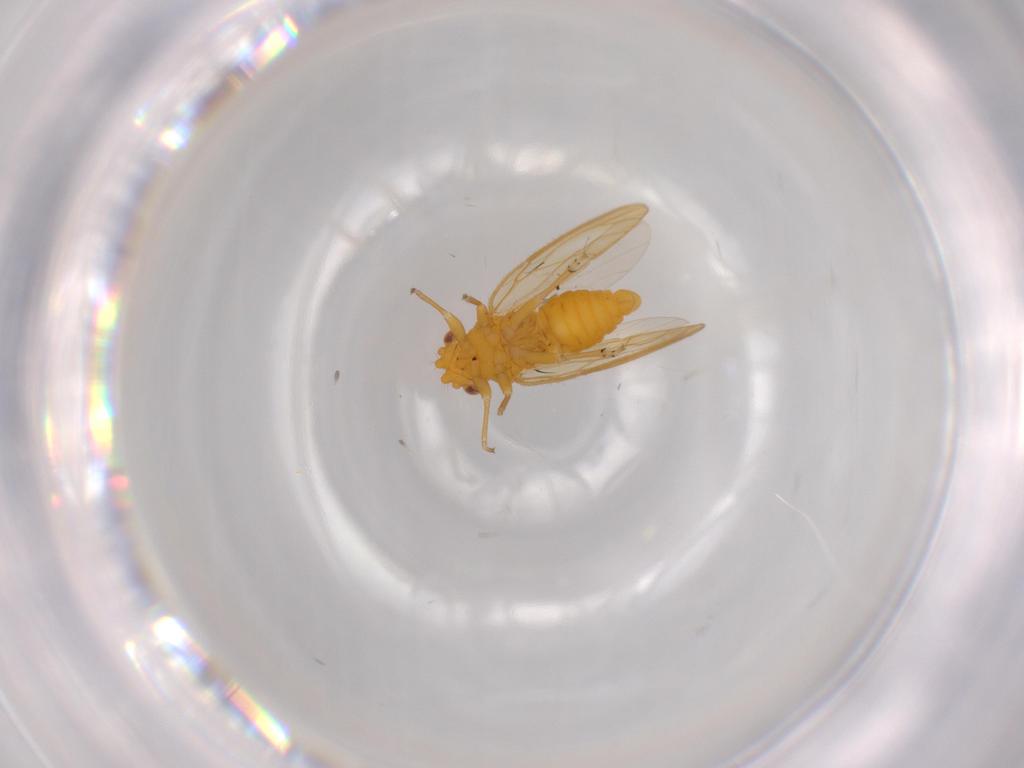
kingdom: Animalia
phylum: Arthropoda
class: Insecta
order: Hemiptera
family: Psyllidae
